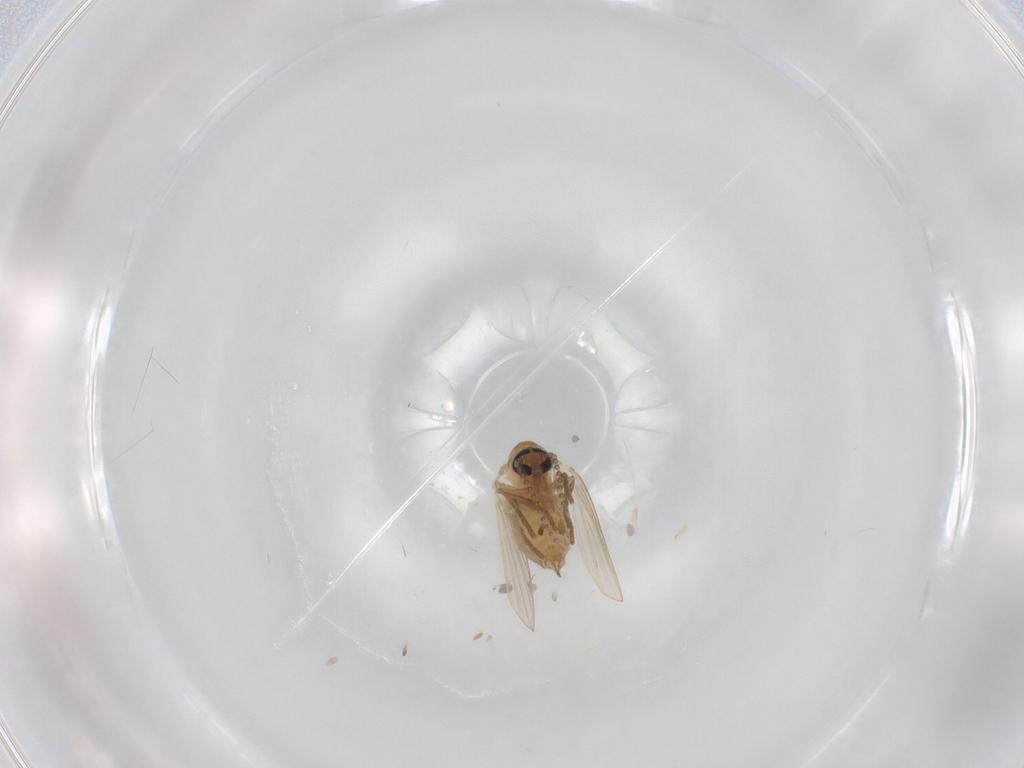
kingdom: Animalia
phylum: Arthropoda
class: Insecta
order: Diptera
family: Psychodidae
